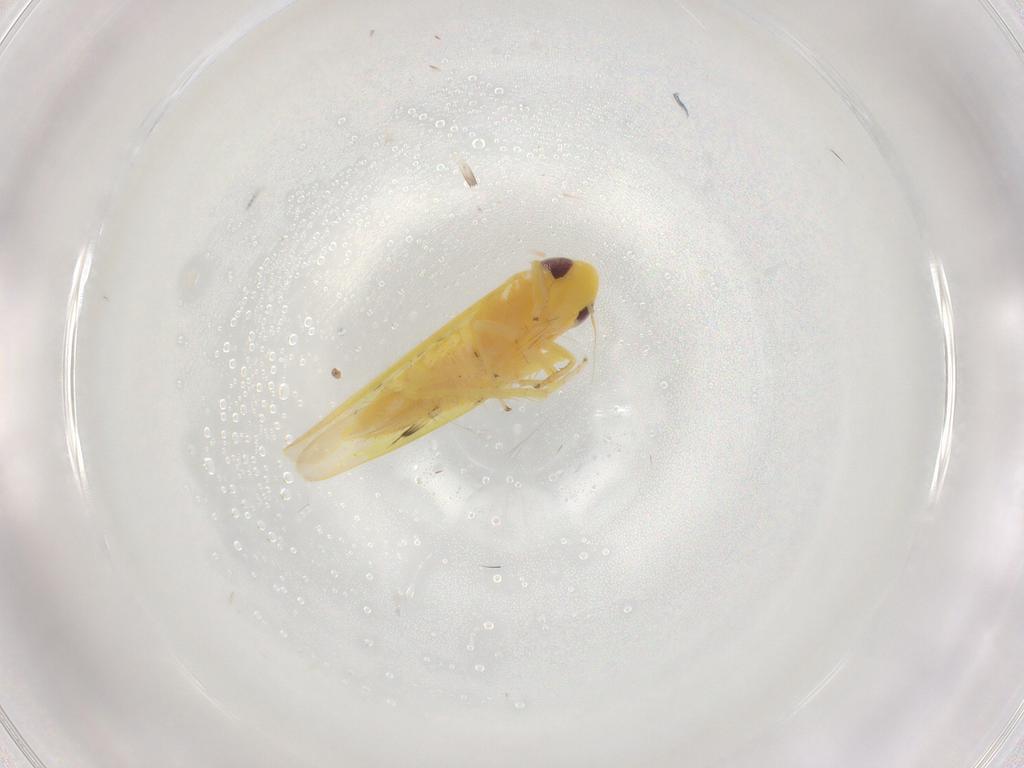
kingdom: Animalia
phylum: Arthropoda
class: Insecta
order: Hemiptera
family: Cicadellidae
